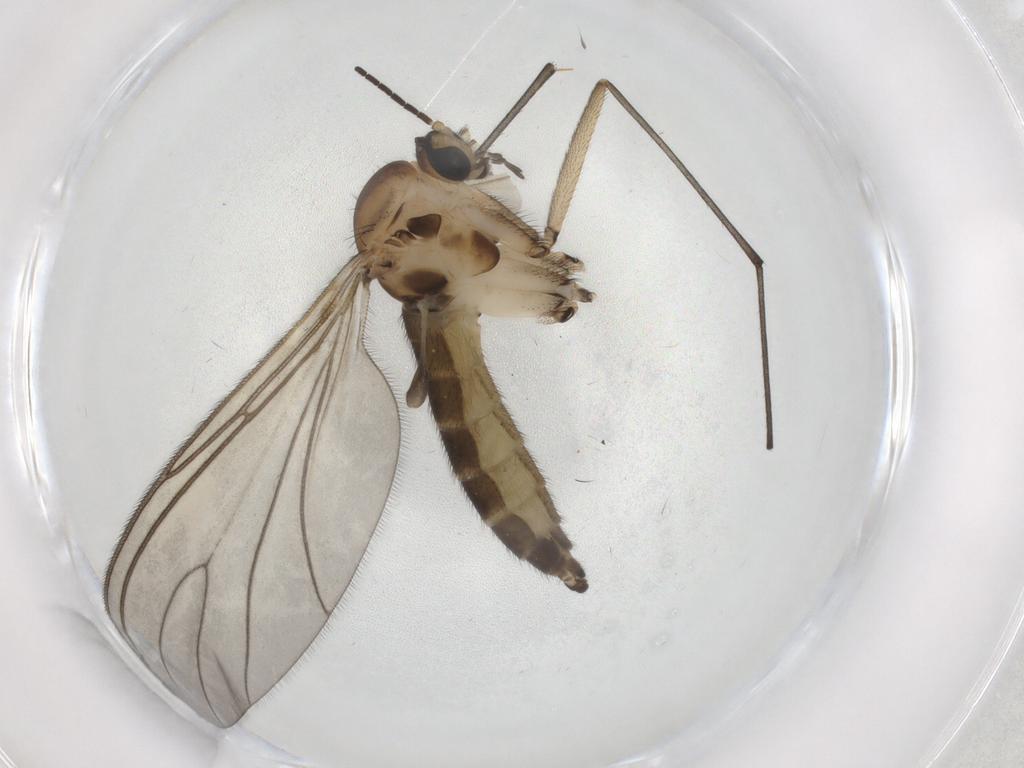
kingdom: Animalia
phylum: Arthropoda
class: Insecta
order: Diptera
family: Sciaridae
